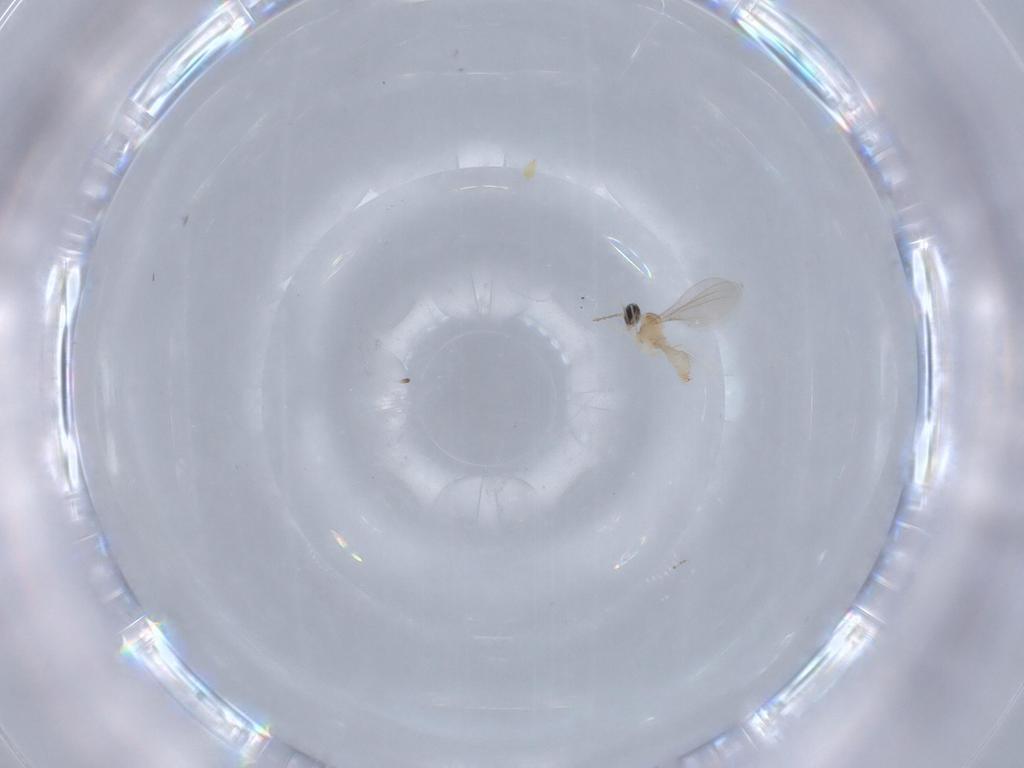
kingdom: Animalia
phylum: Arthropoda
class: Insecta
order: Diptera
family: Cecidomyiidae
